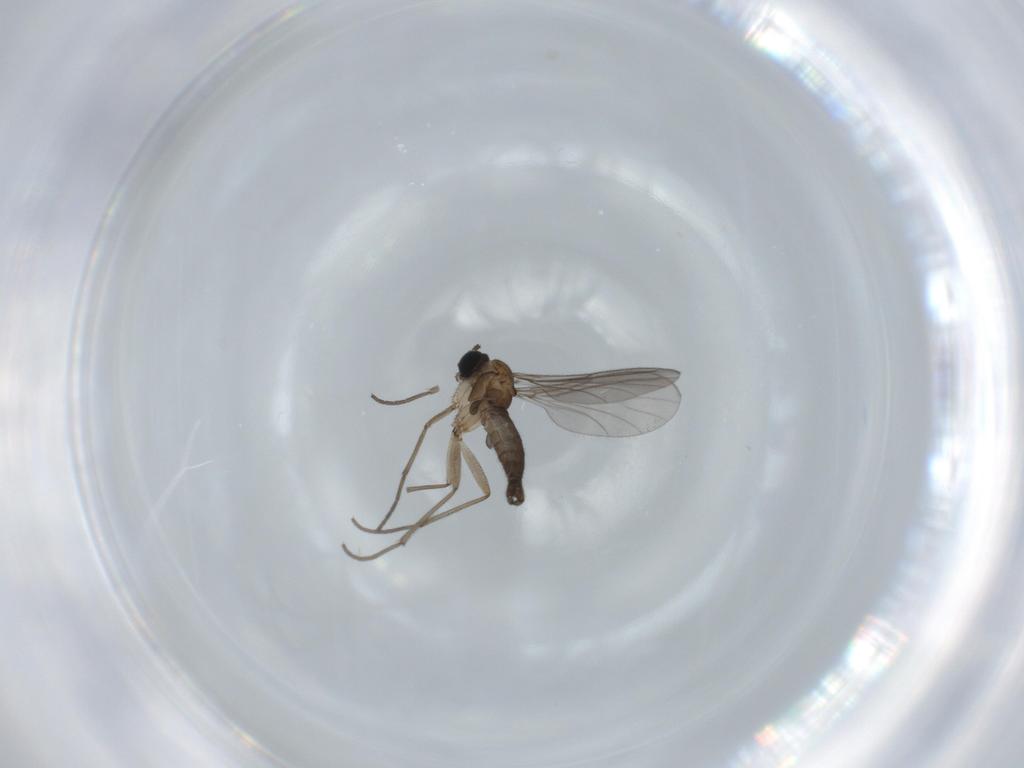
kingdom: Animalia
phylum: Arthropoda
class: Insecta
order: Diptera
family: Sciaridae
